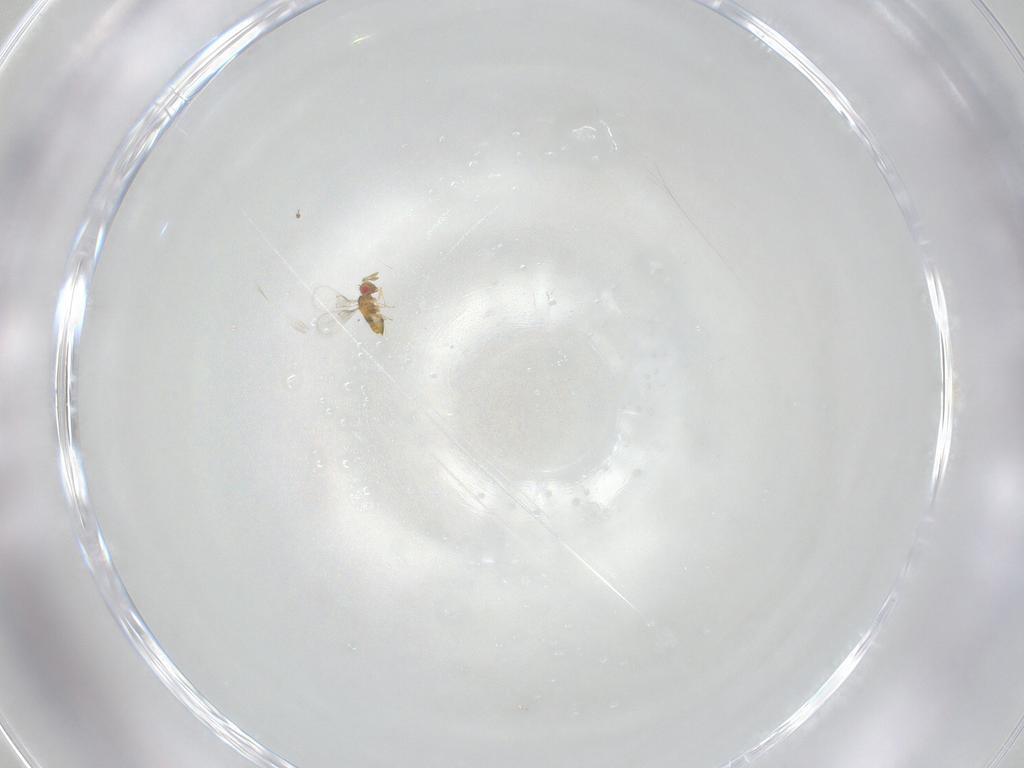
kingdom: Animalia
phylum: Arthropoda
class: Insecta
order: Hymenoptera
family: Trichogrammatidae
